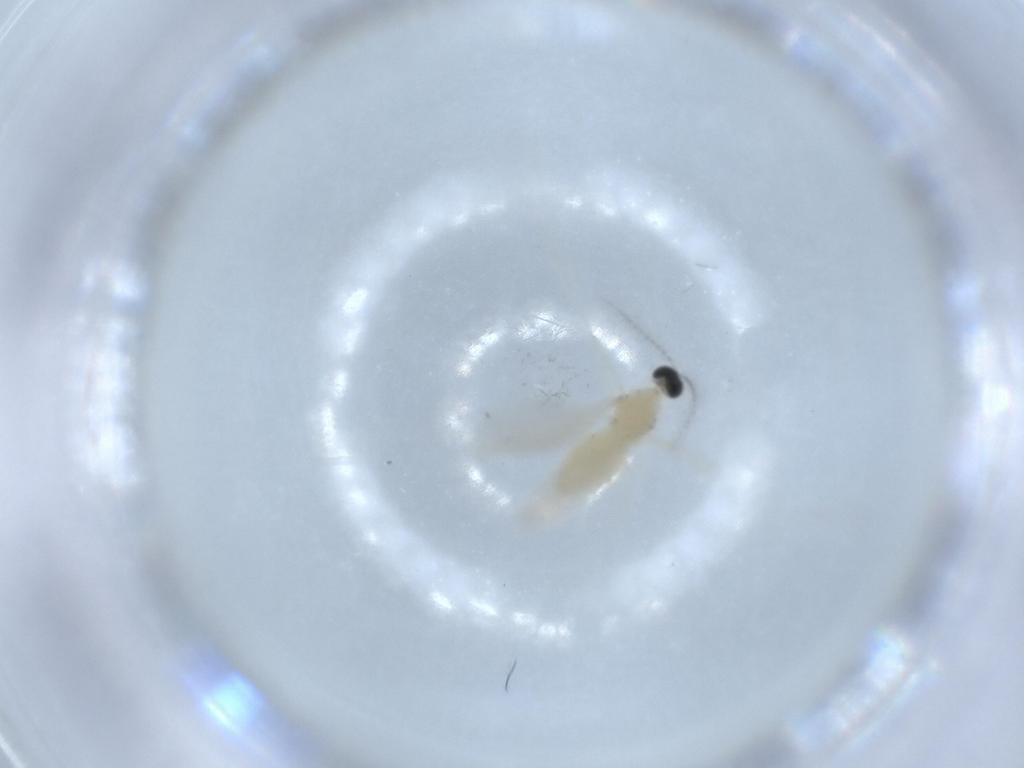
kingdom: Animalia
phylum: Arthropoda
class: Insecta
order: Diptera
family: Cecidomyiidae
